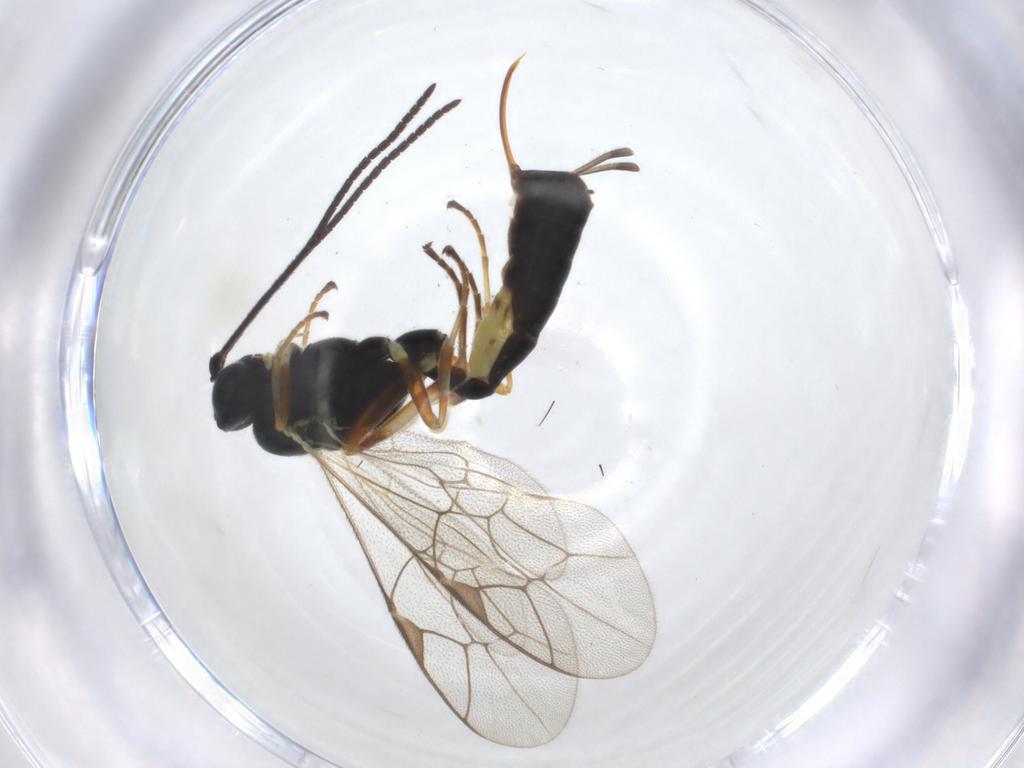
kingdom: Animalia
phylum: Arthropoda
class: Insecta
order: Hymenoptera
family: Ichneumonidae
